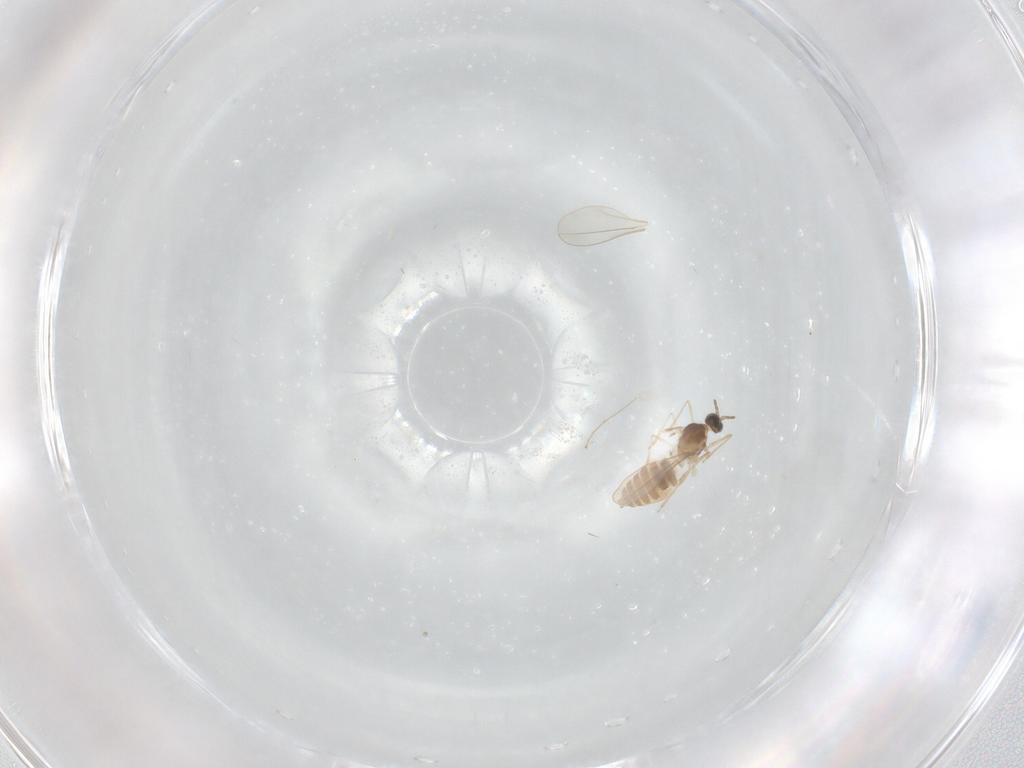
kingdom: Animalia
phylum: Arthropoda
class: Insecta
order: Diptera
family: Cecidomyiidae
